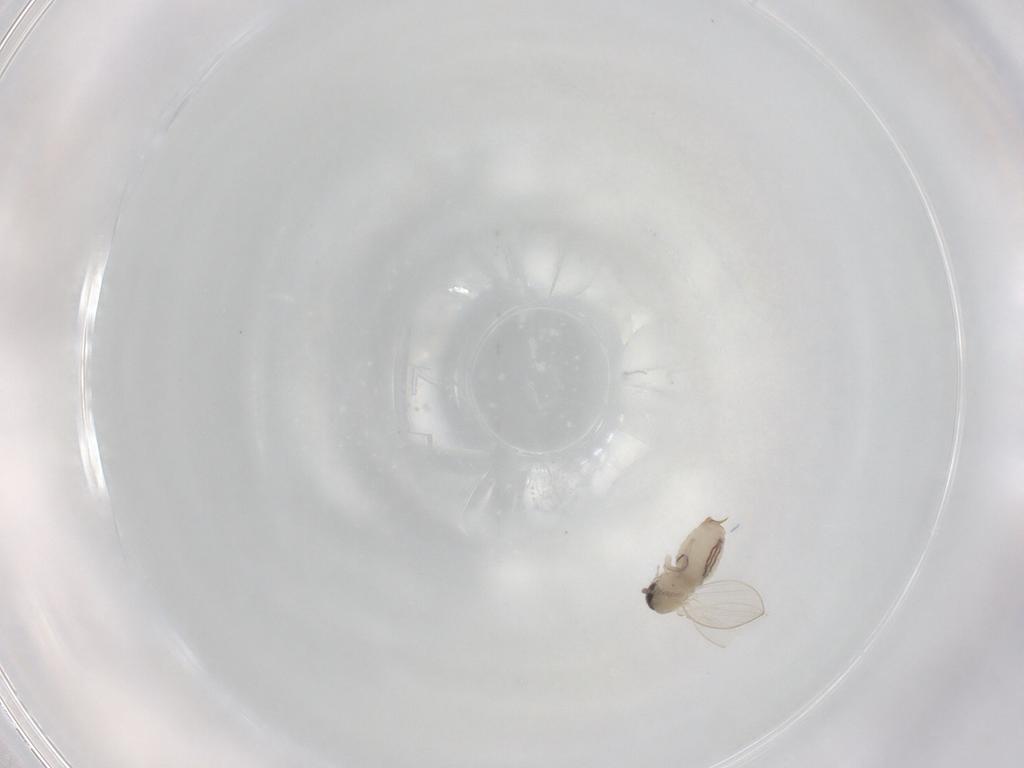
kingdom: Animalia
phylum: Arthropoda
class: Insecta
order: Diptera
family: Psychodidae
